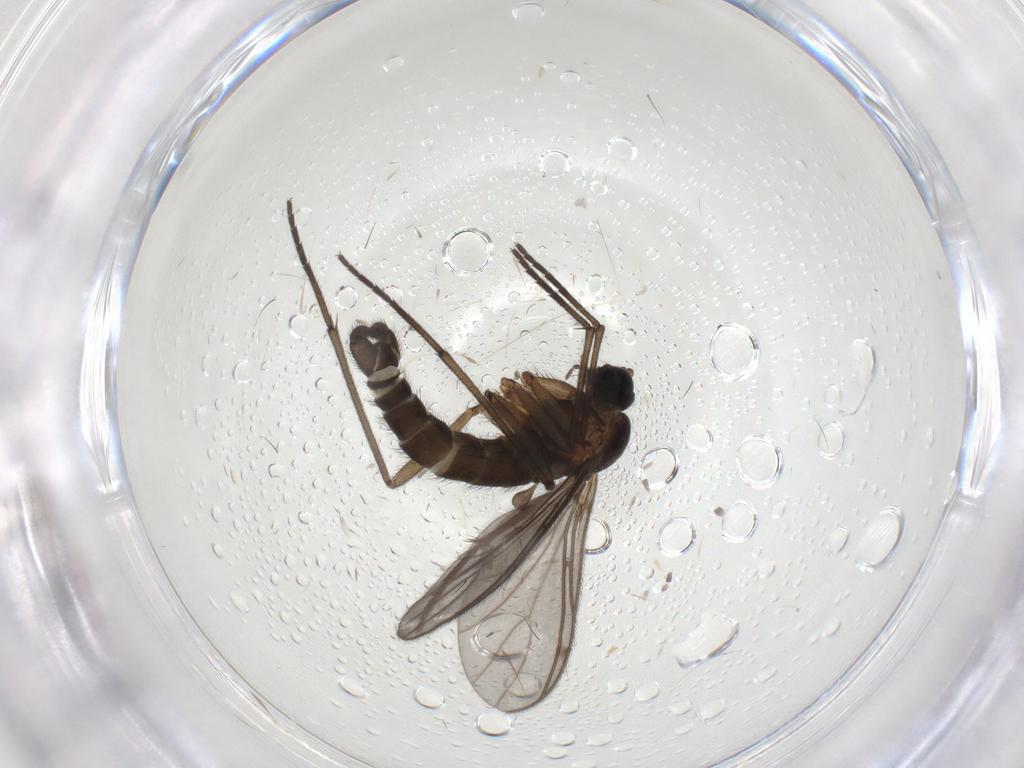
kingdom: Animalia
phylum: Arthropoda
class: Insecta
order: Diptera
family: Sciaridae
